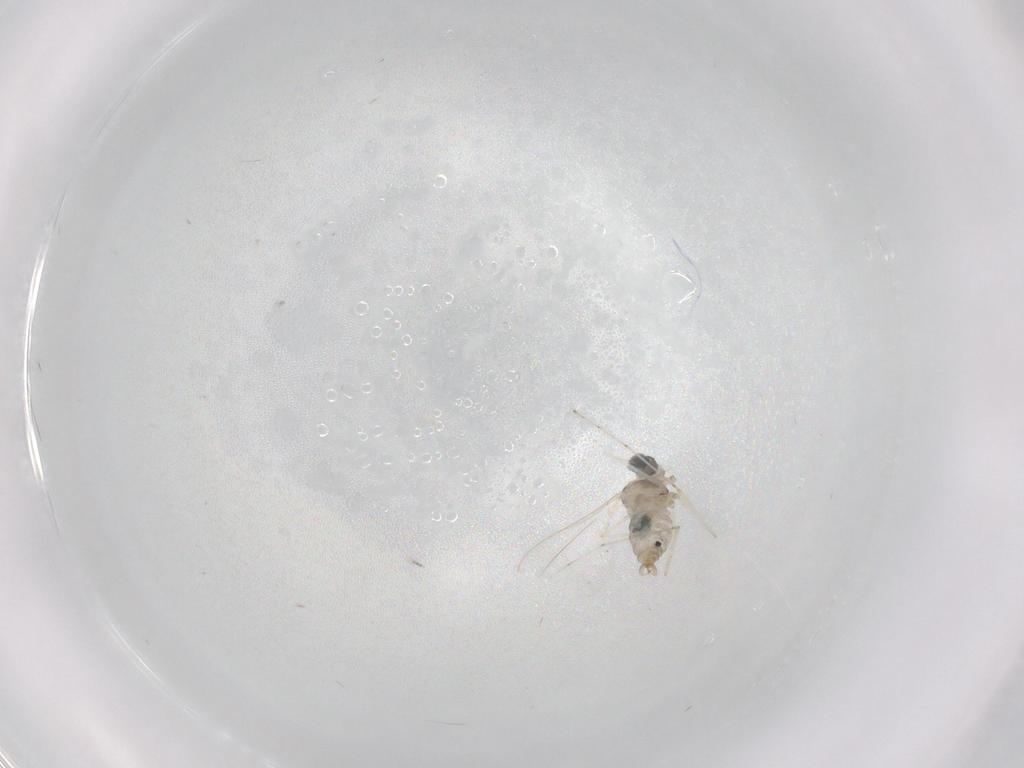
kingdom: Animalia
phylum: Arthropoda
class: Insecta
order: Diptera
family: Cecidomyiidae
